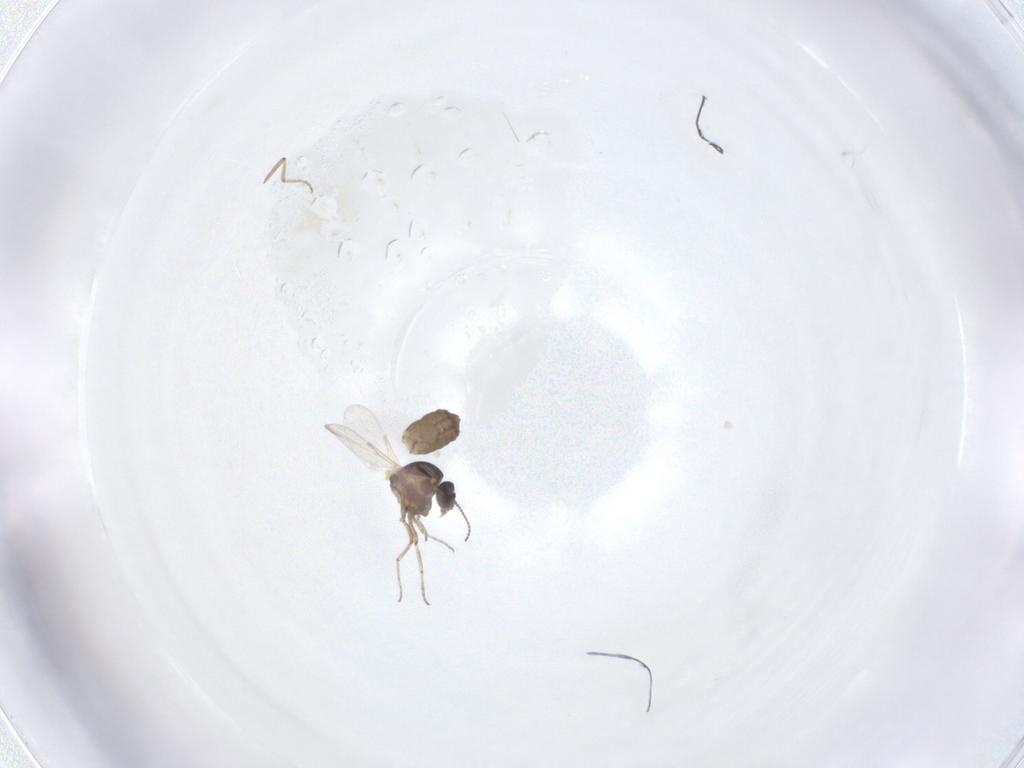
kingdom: Animalia
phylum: Arthropoda
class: Insecta
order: Diptera
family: Ceratopogonidae
